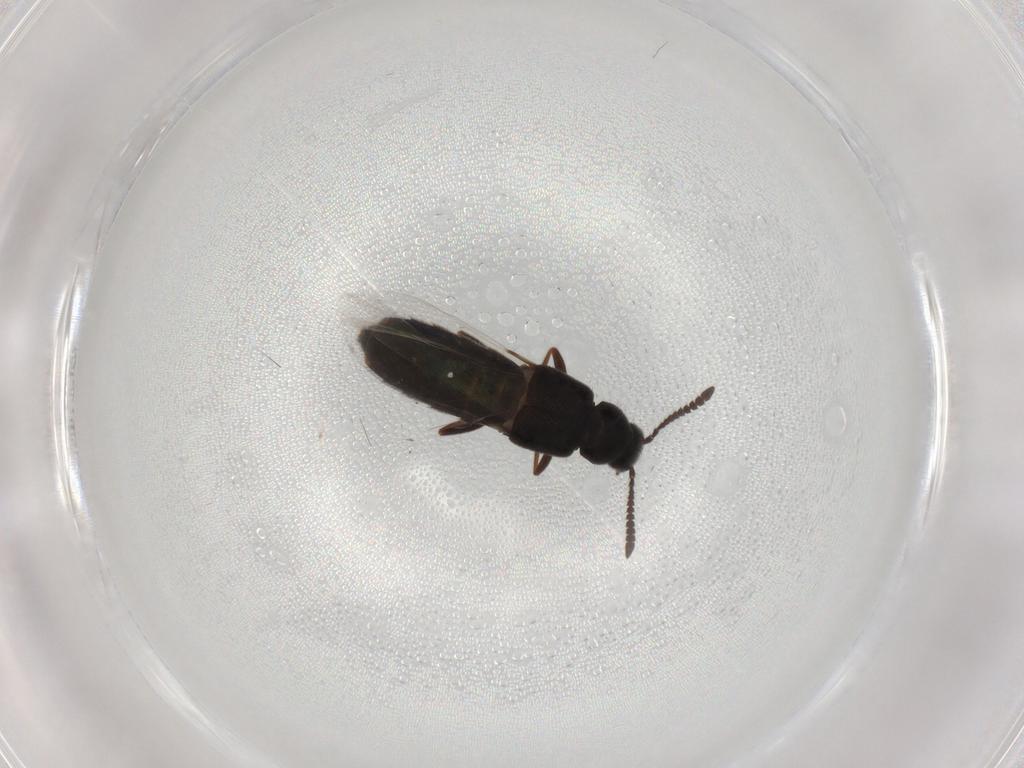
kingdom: Animalia
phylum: Arthropoda
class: Insecta
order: Coleoptera
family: Staphylinidae
